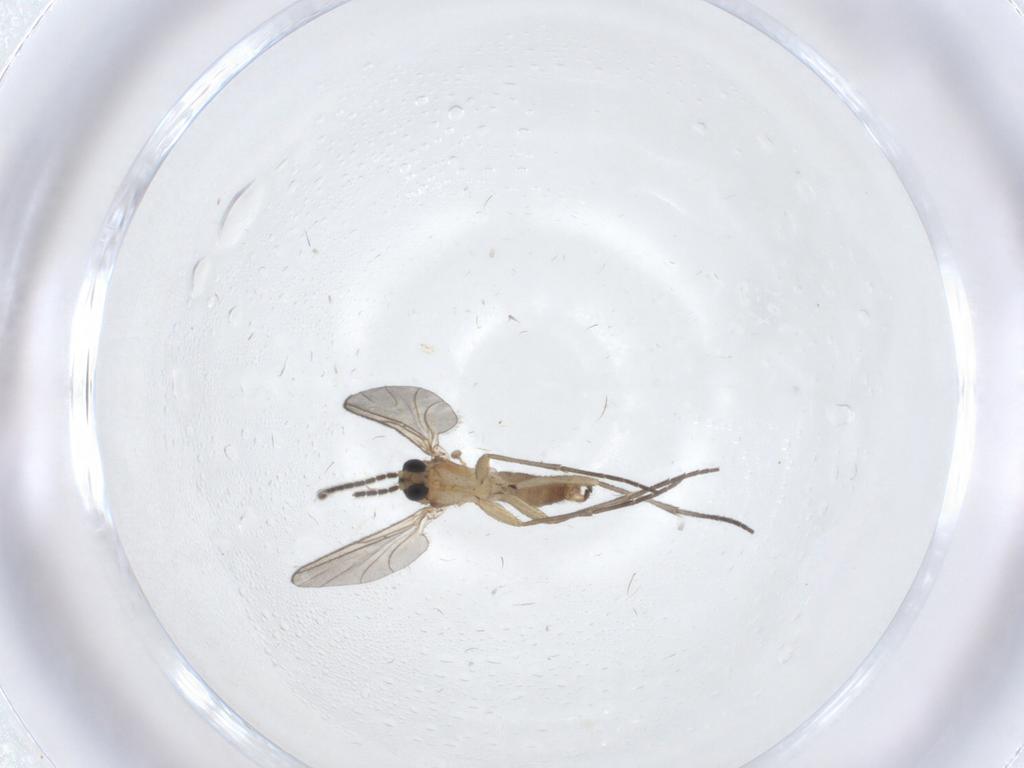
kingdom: Animalia
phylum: Arthropoda
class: Insecta
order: Diptera
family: Sciaridae
